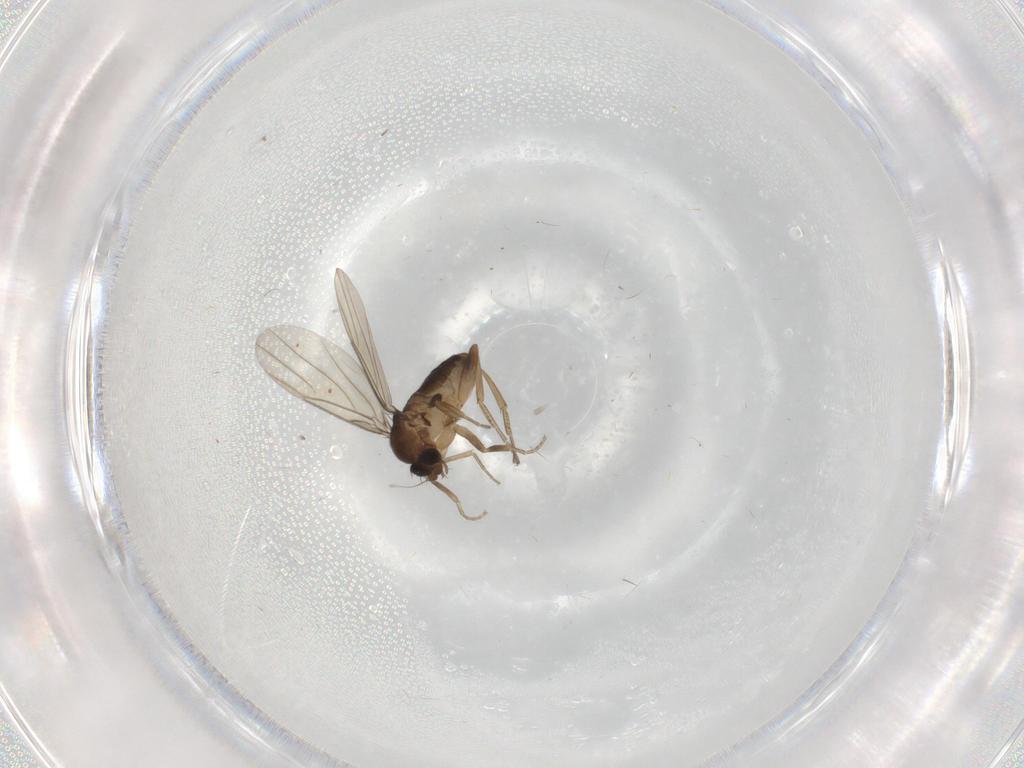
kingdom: Animalia
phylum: Arthropoda
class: Insecta
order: Diptera
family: Phoridae
